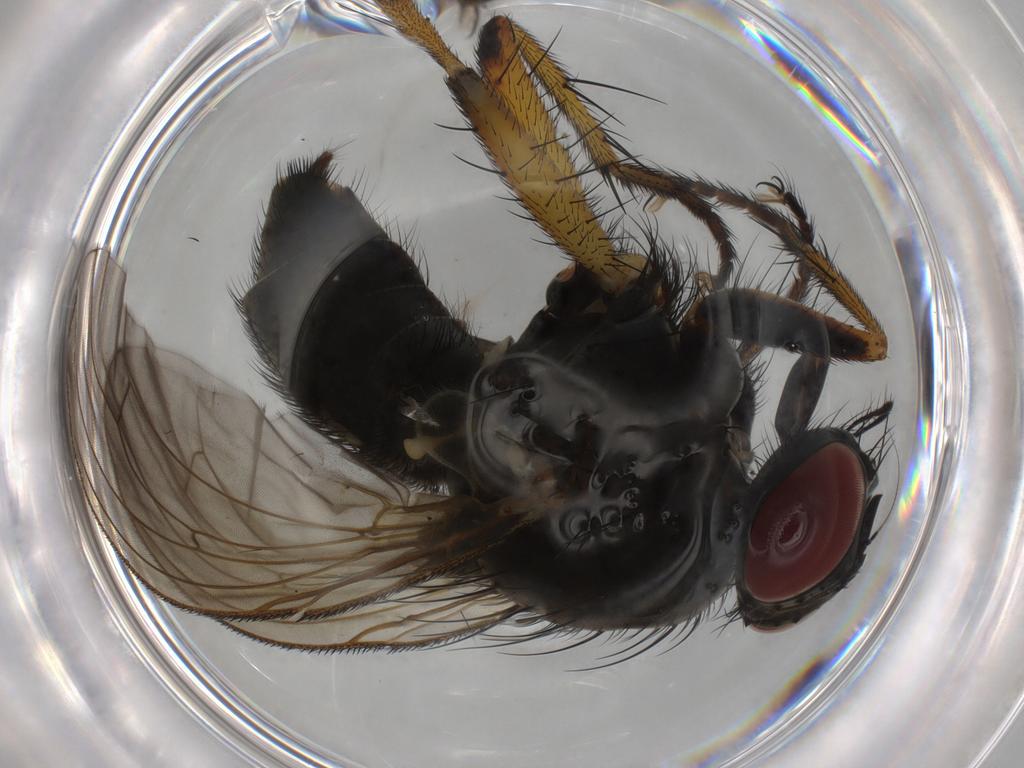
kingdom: Animalia
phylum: Arthropoda
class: Insecta
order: Diptera
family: Muscidae
